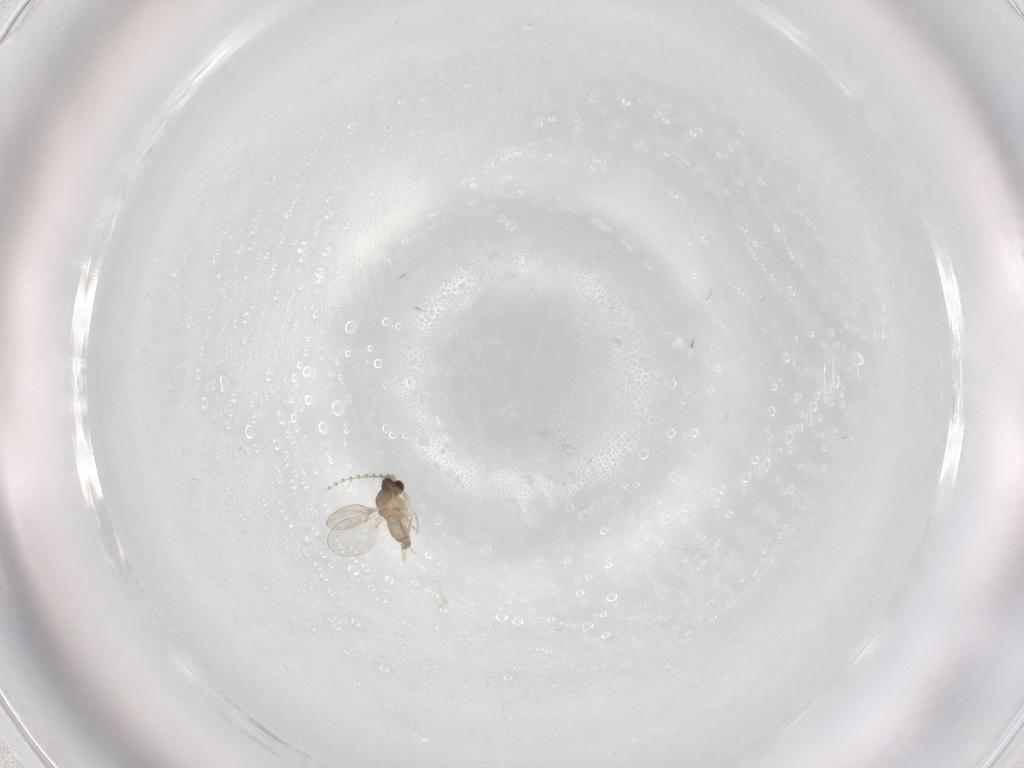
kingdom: Animalia
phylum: Arthropoda
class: Insecta
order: Diptera
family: Cecidomyiidae
